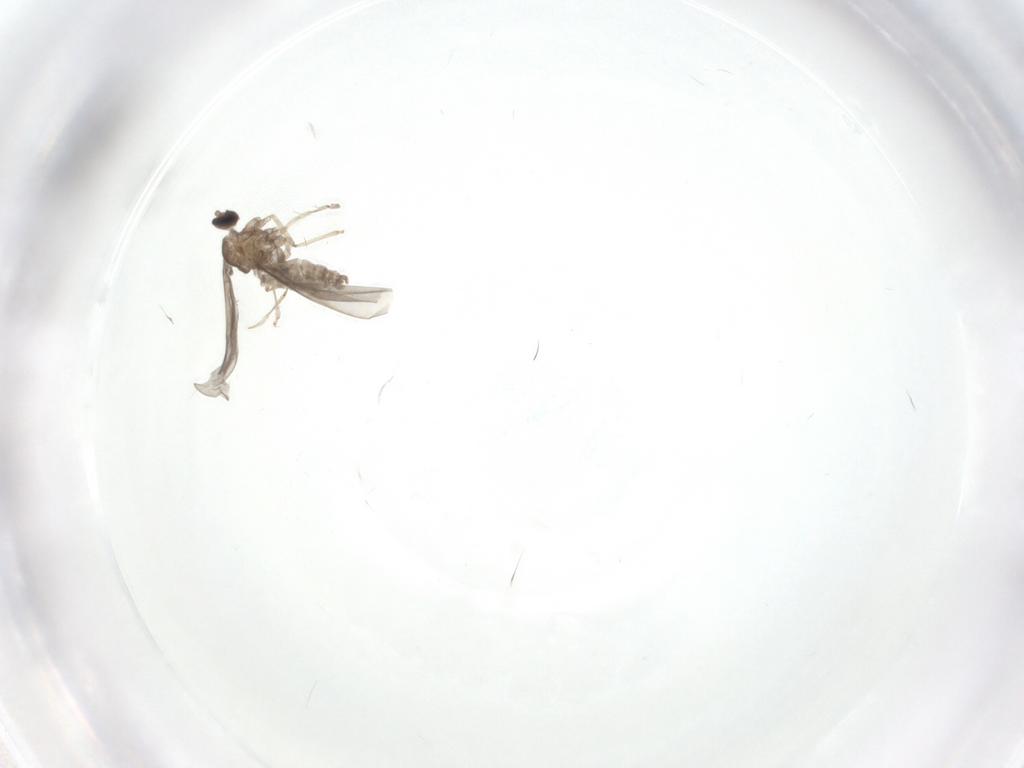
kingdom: Animalia
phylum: Arthropoda
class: Insecta
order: Diptera
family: Cecidomyiidae
